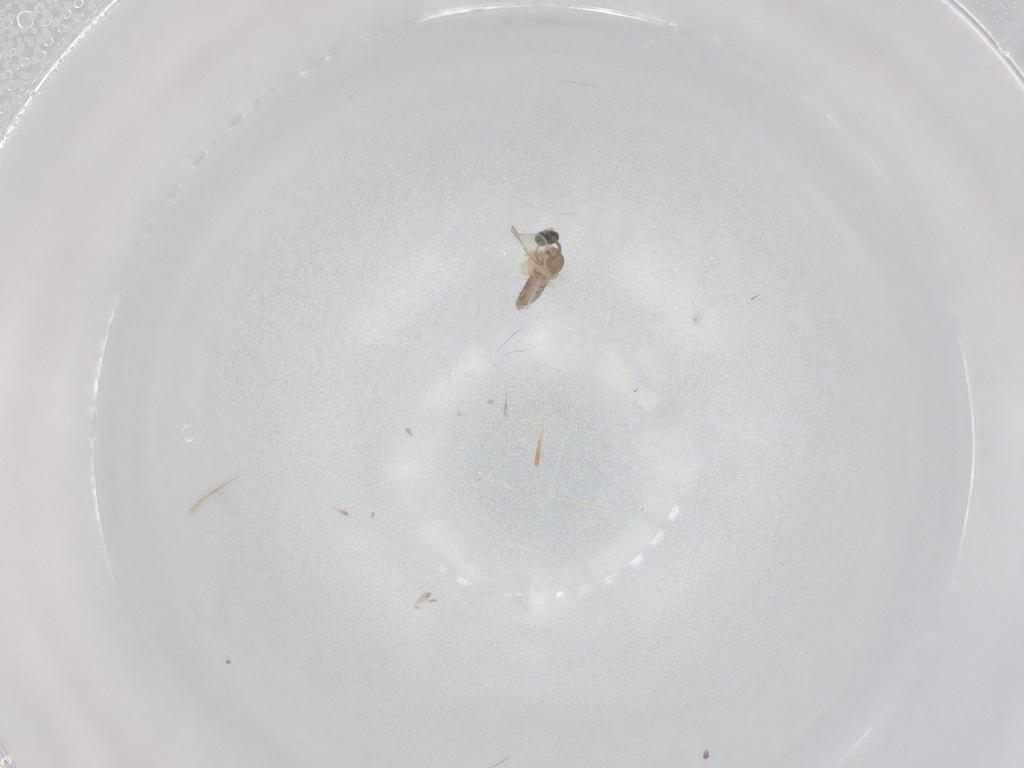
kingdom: Animalia
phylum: Arthropoda
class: Insecta
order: Diptera
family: Cecidomyiidae
